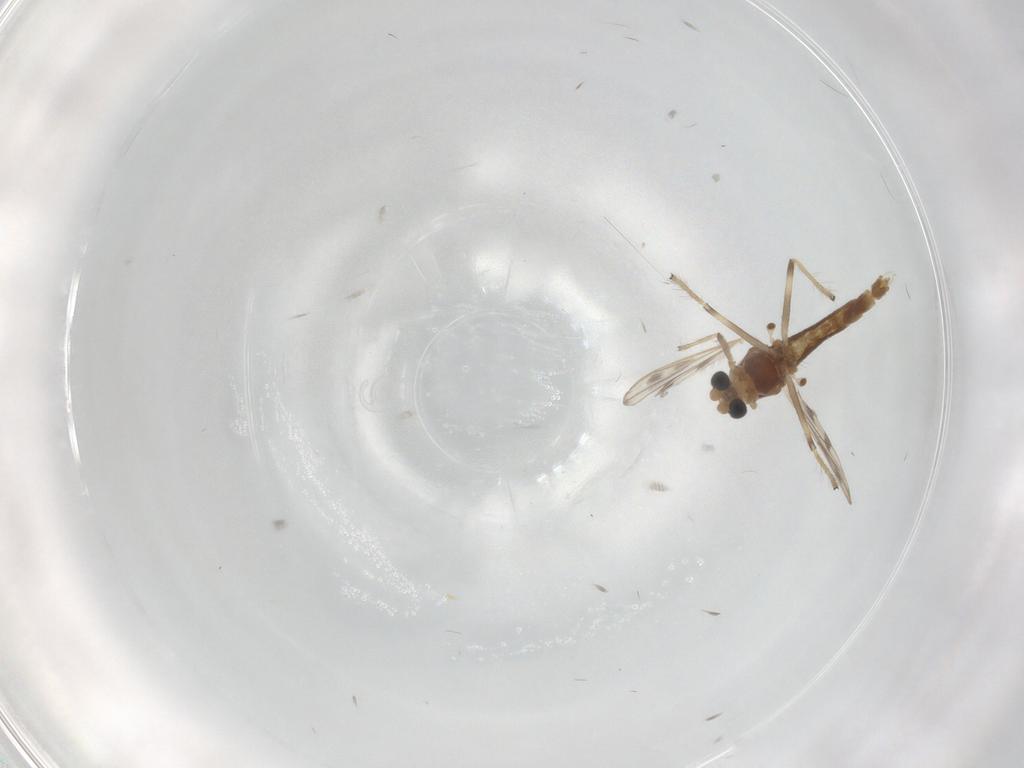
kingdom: Animalia
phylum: Arthropoda
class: Insecta
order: Diptera
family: Chironomidae
